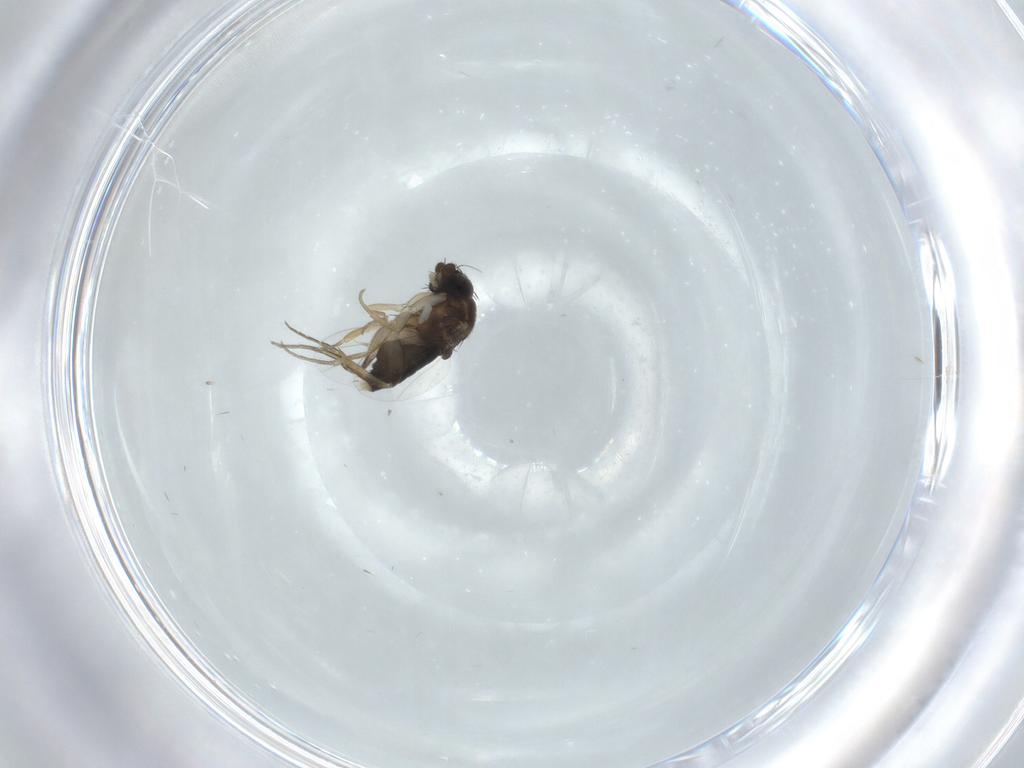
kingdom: Animalia
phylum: Arthropoda
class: Insecta
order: Diptera
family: Phoridae
